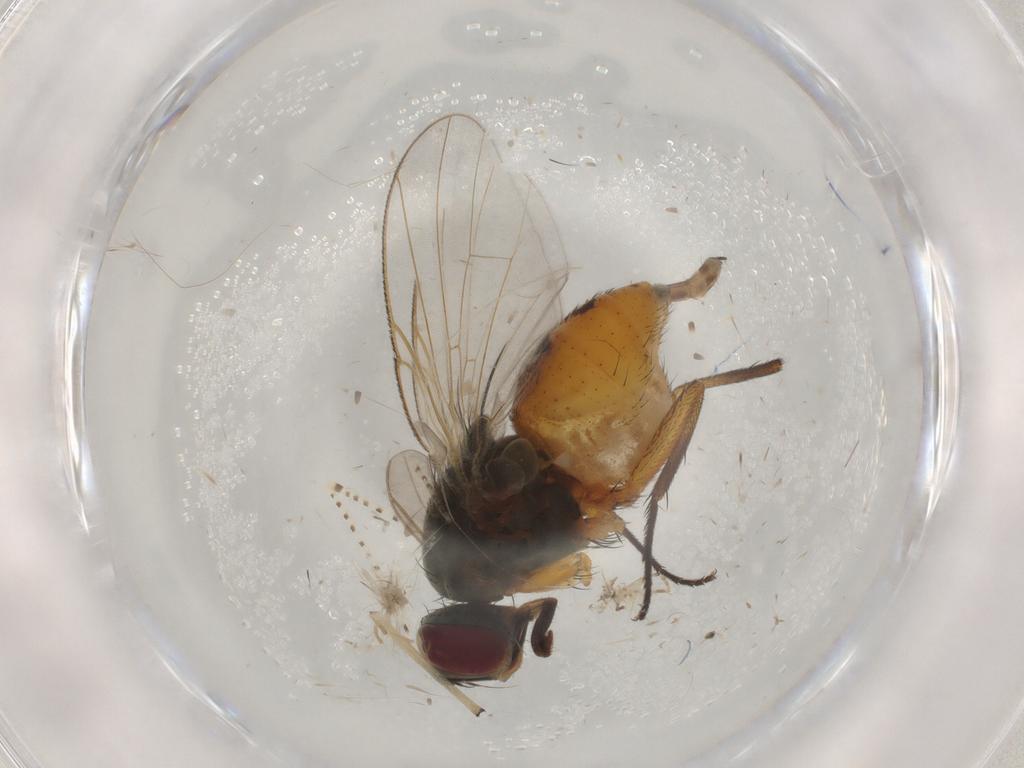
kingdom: Animalia
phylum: Arthropoda
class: Insecta
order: Diptera
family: Muscidae
